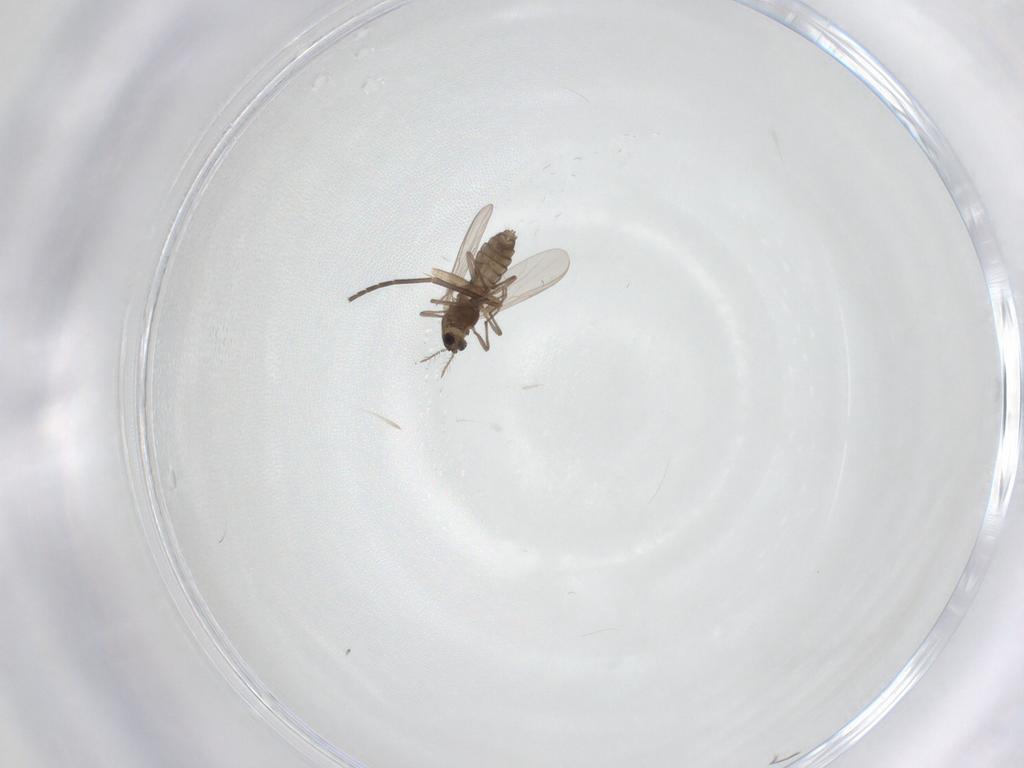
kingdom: Animalia
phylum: Arthropoda
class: Insecta
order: Diptera
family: Chironomidae
